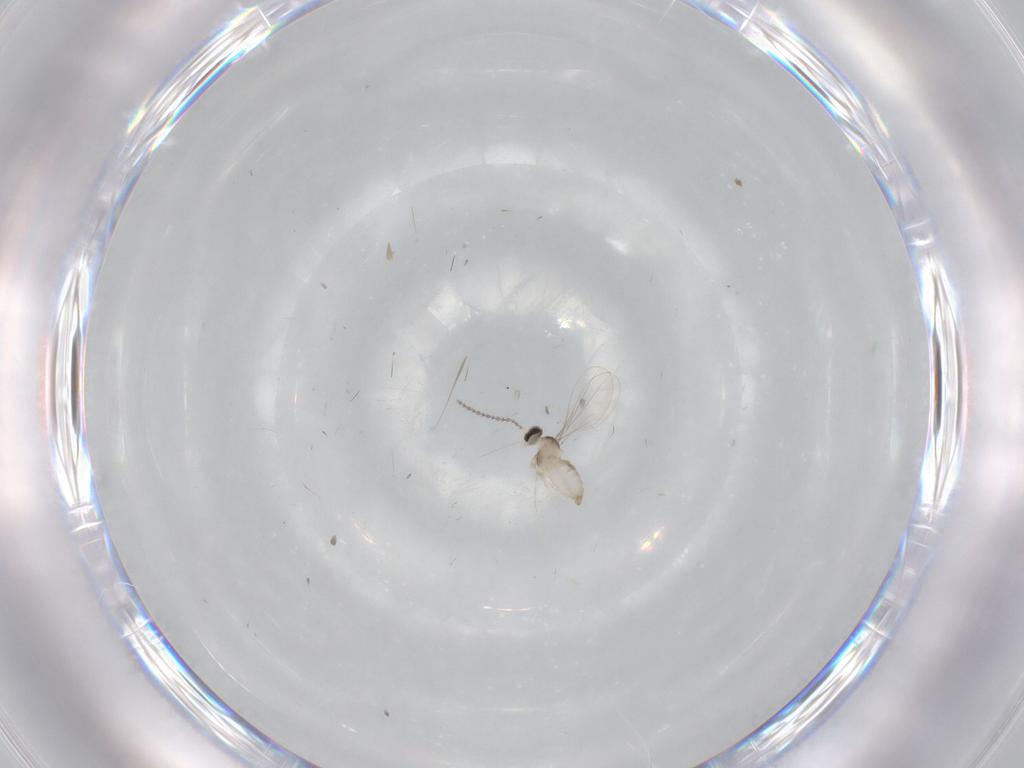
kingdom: Animalia
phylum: Arthropoda
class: Insecta
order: Diptera
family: Cecidomyiidae
